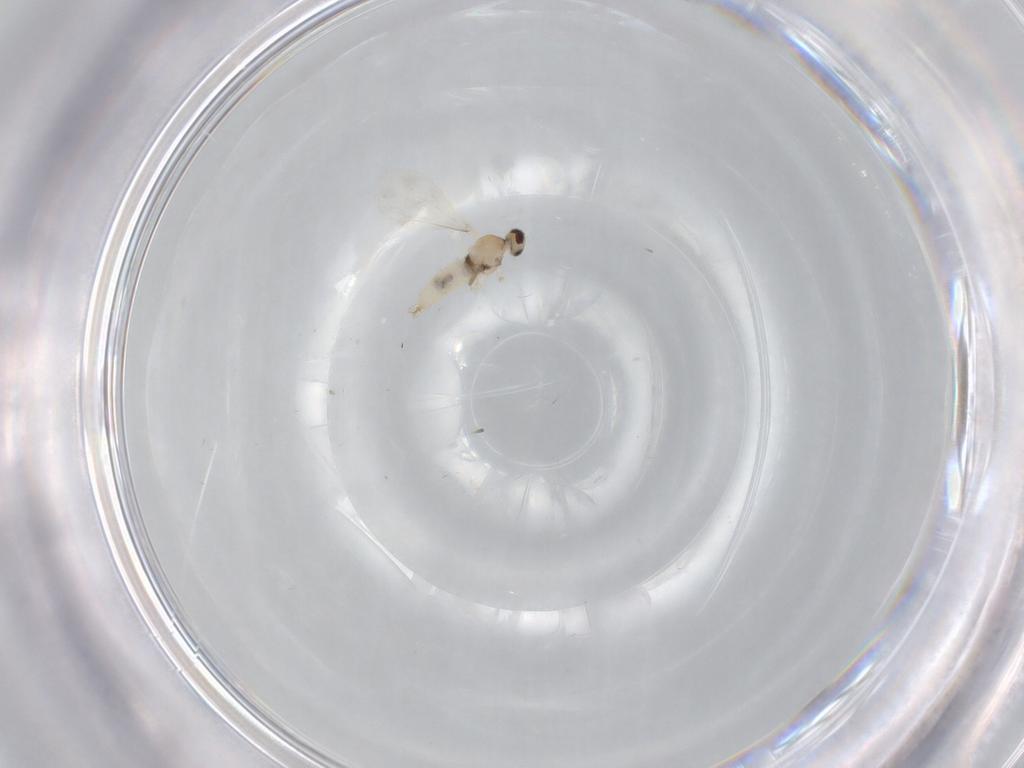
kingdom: Animalia
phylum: Arthropoda
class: Insecta
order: Diptera
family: Cecidomyiidae
